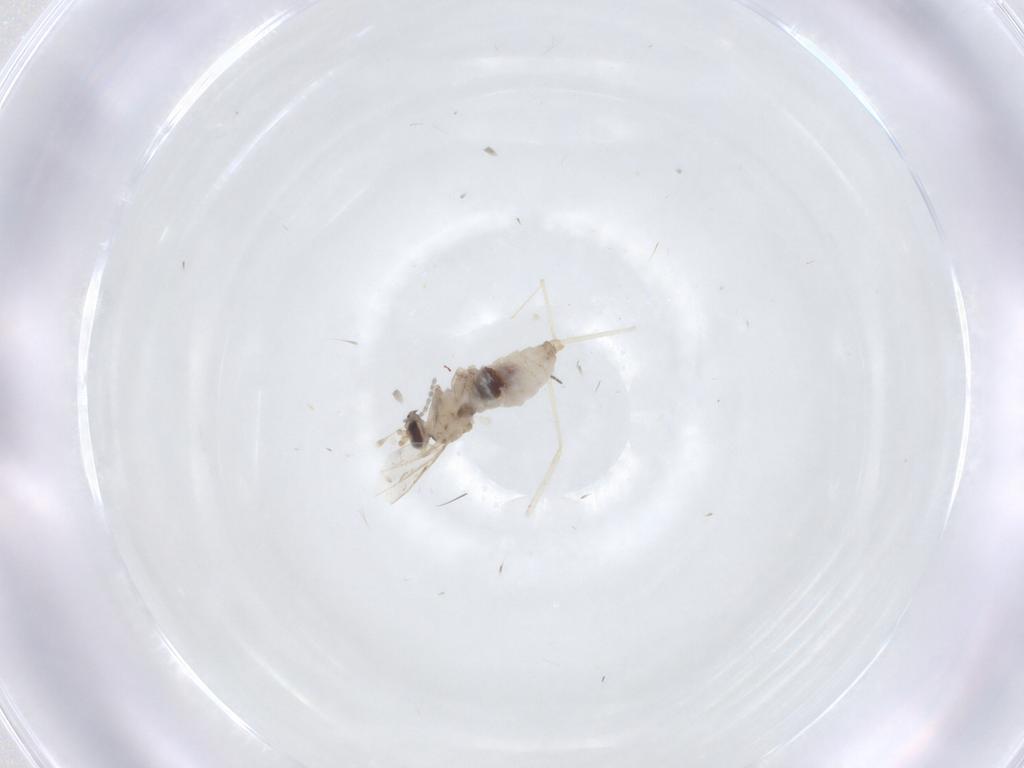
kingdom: Animalia
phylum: Arthropoda
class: Insecta
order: Diptera
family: Cecidomyiidae
